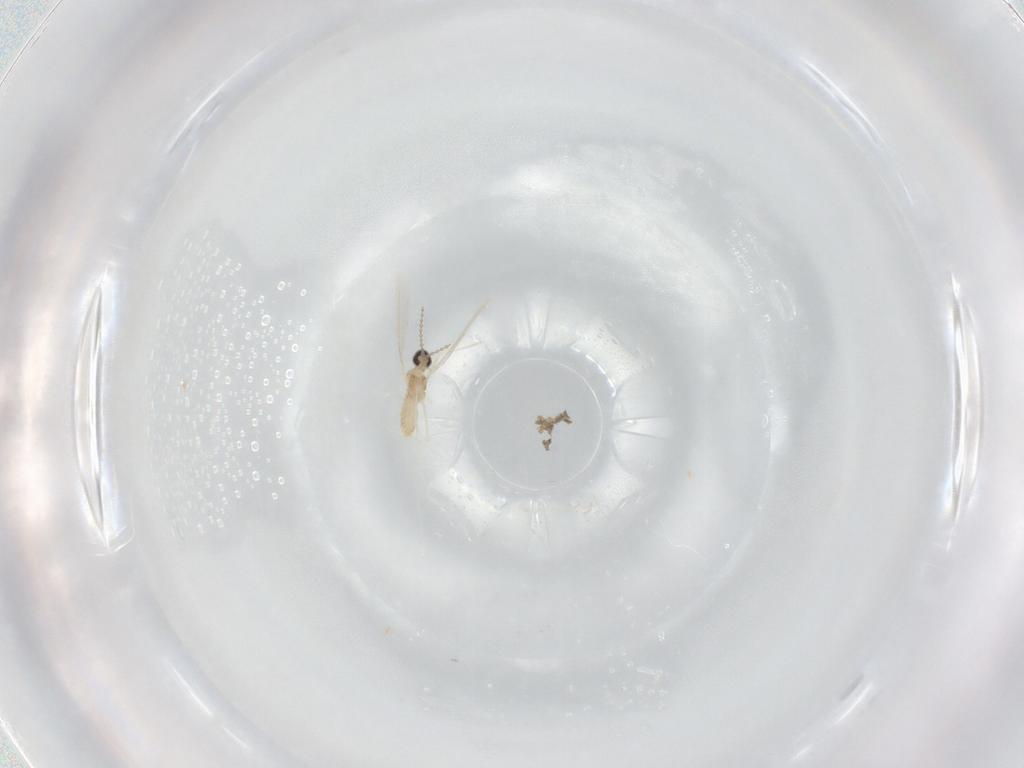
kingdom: Animalia
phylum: Arthropoda
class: Insecta
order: Diptera
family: Cecidomyiidae
